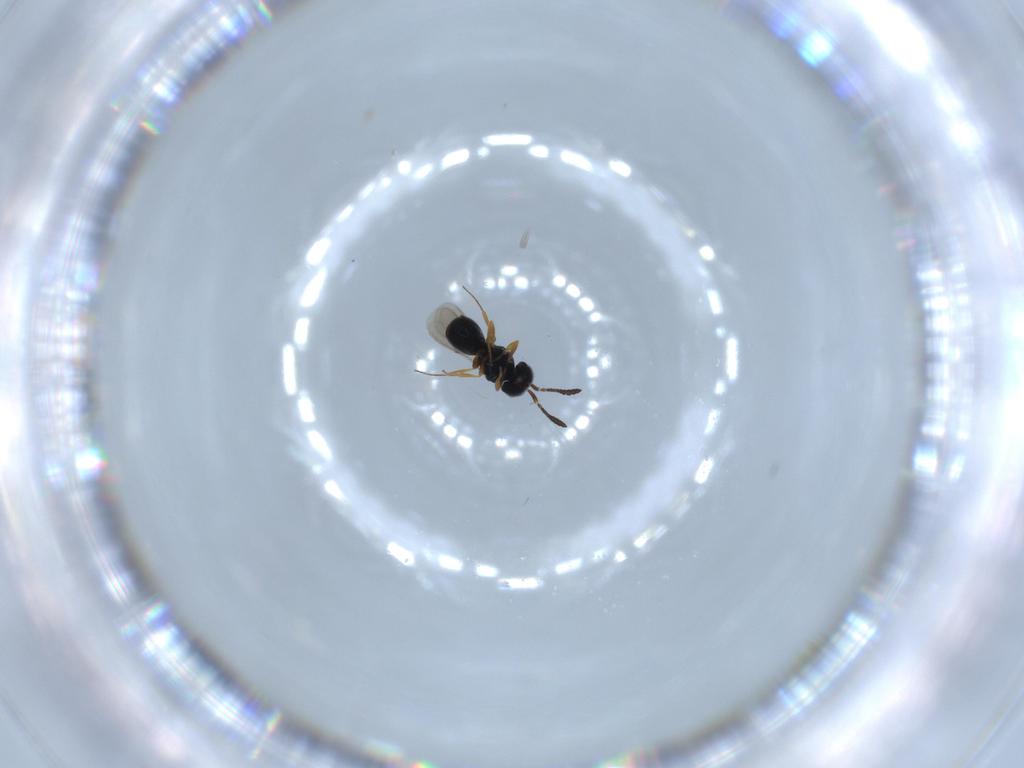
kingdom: Animalia
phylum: Arthropoda
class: Insecta
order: Hymenoptera
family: Scelionidae
